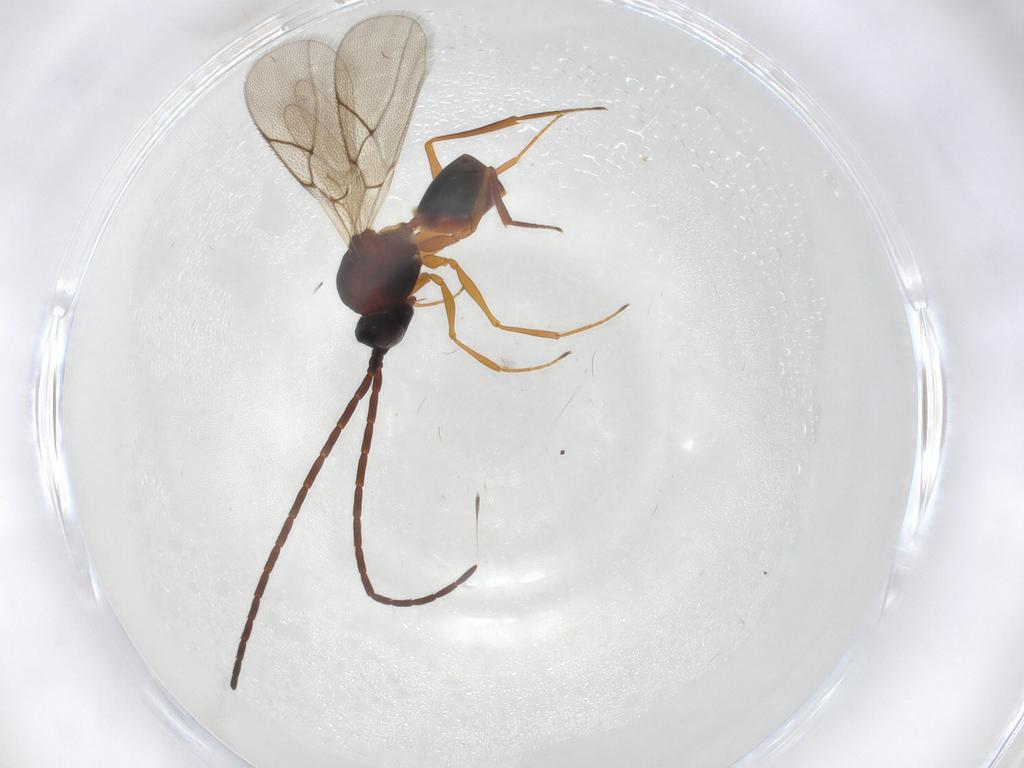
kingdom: Animalia
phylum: Arthropoda
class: Insecta
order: Hymenoptera
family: Figitidae
